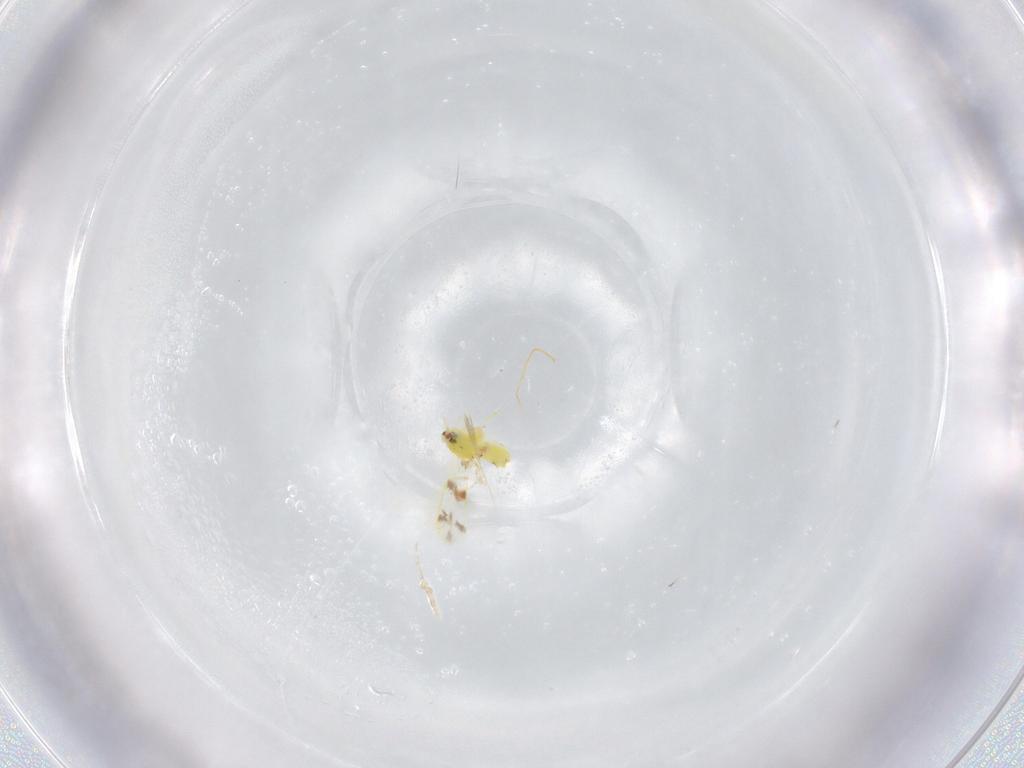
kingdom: Animalia
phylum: Arthropoda
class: Insecta
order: Hemiptera
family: Aleyrodidae
